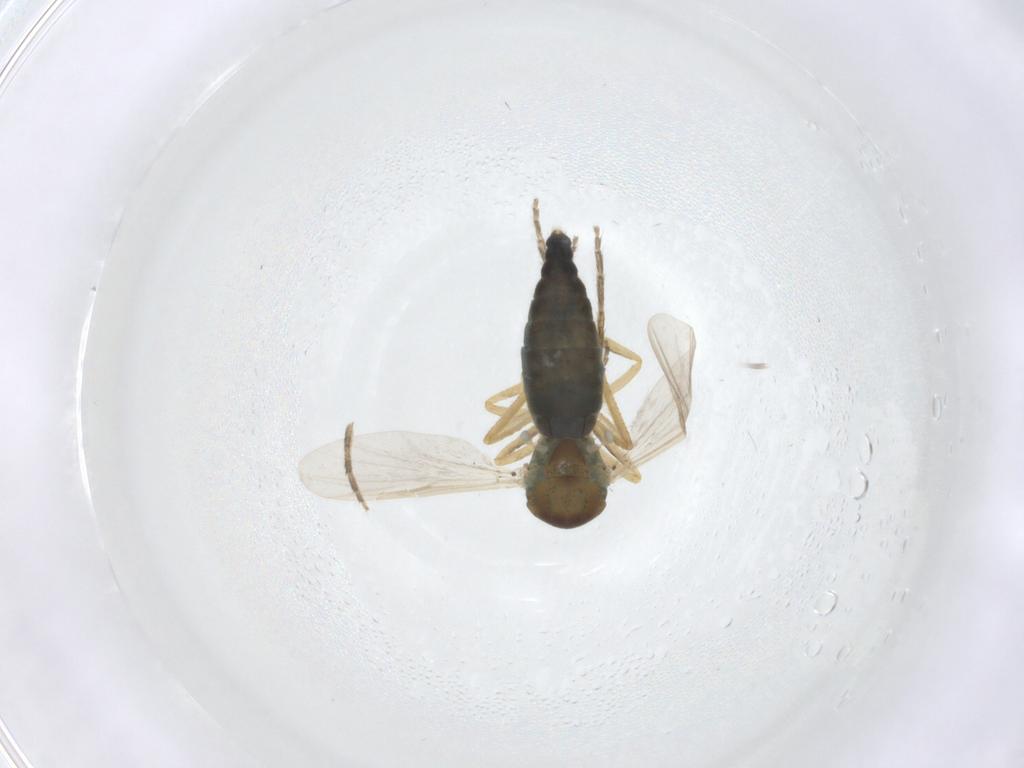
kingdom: Animalia
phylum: Arthropoda
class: Insecta
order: Diptera
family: Ceratopogonidae
